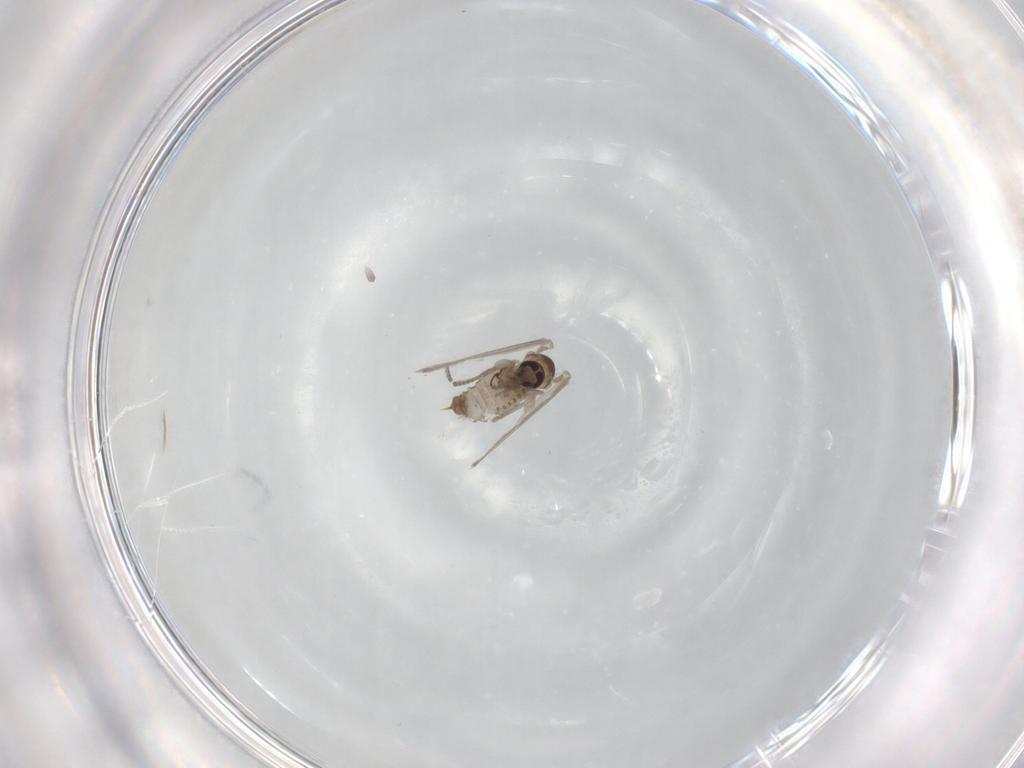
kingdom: Animalia
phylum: Arthropoda
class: Insecta
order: Diptera
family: Psychodidae
